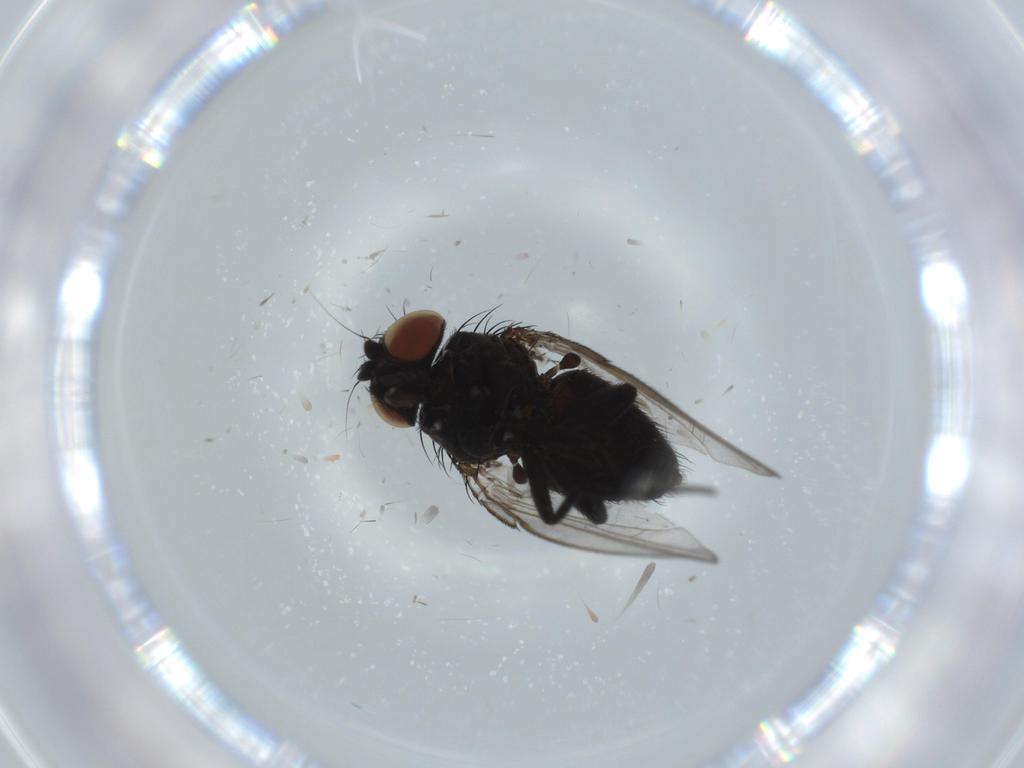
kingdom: Animalia
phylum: Arthropoda
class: Insecta
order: Diptera
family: Milichiidae
